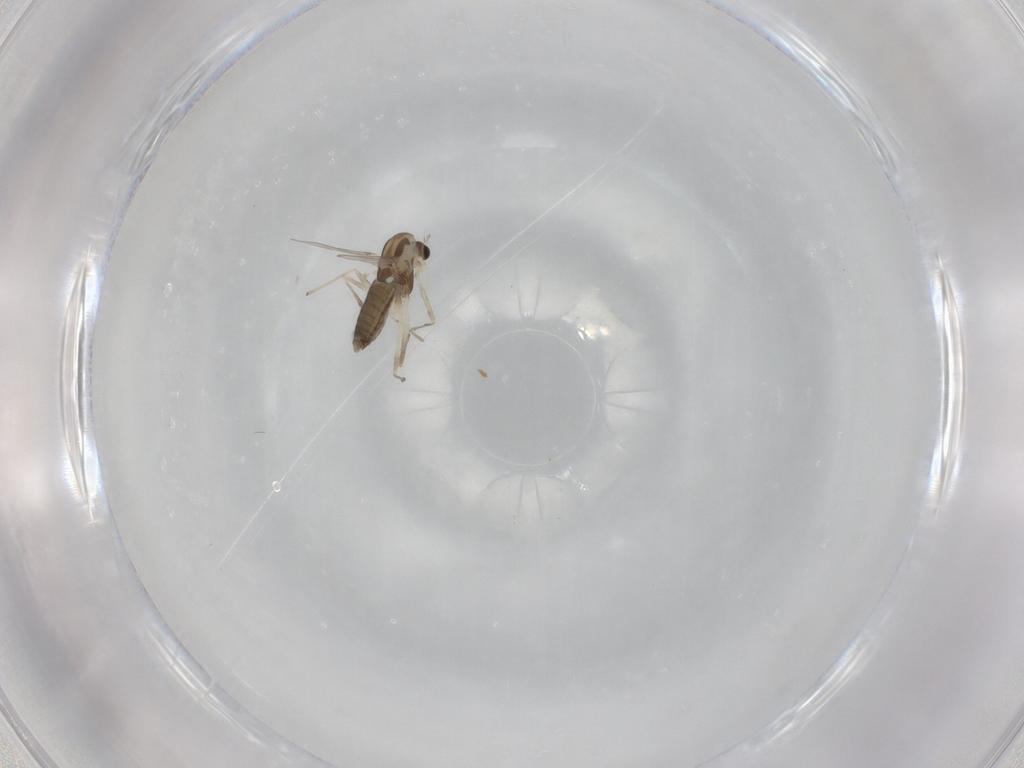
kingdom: Animalia
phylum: Arthropoda
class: Insecta
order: Diptera
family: Chironomidae
